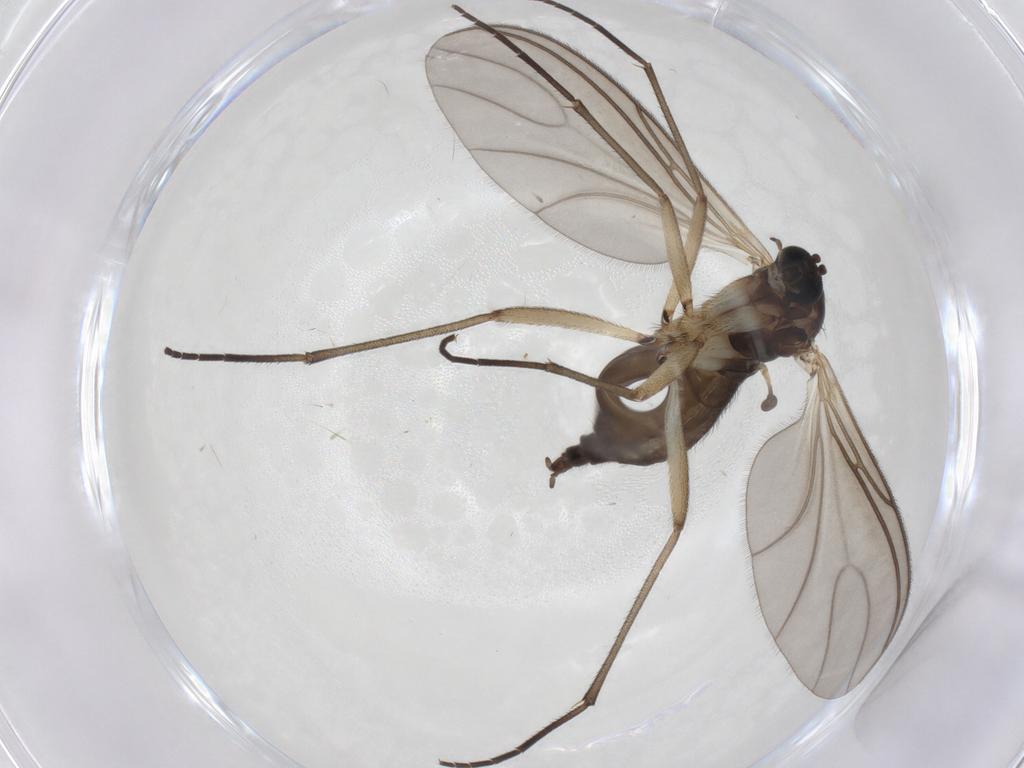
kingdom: Animalia
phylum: Arthropoda
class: Insecta
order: Diptera
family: Sciaridae
